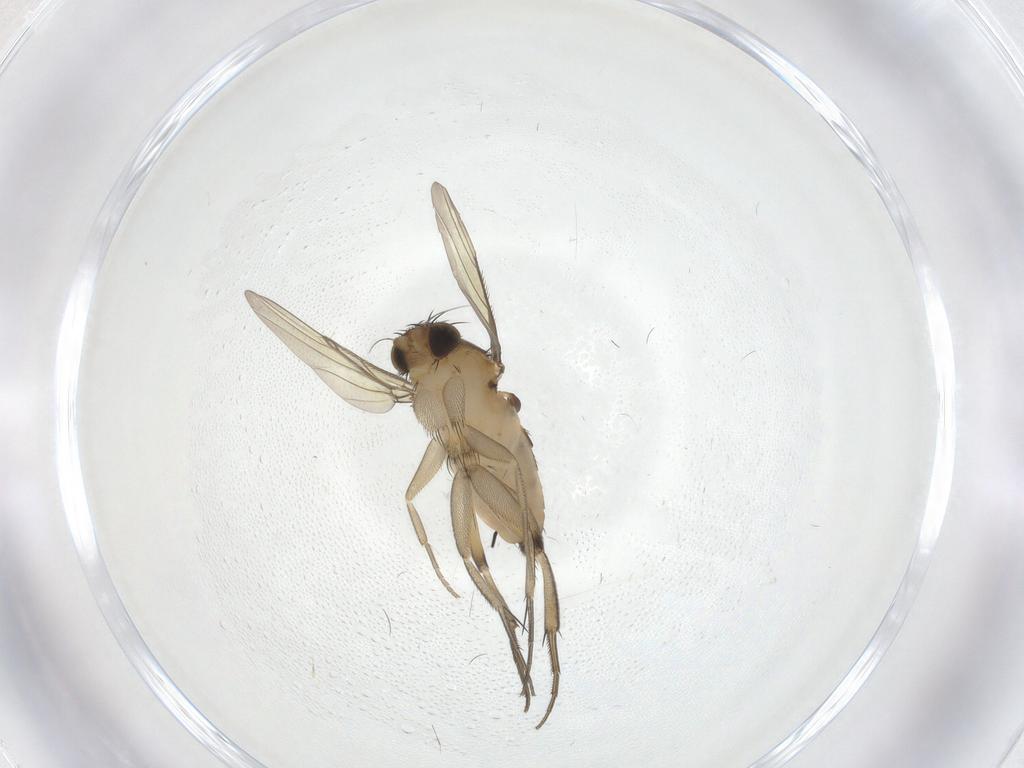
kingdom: Animalia
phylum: Arthropoda
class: Insecta
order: Diptera
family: Phoridae
